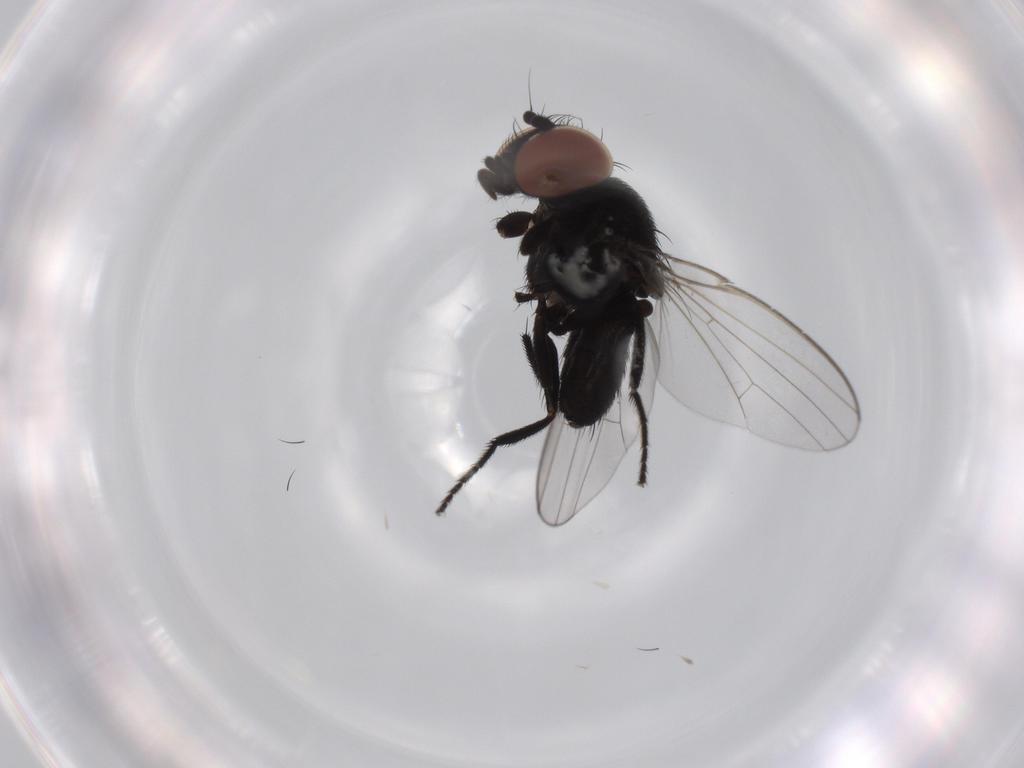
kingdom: Animalia
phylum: Arthropoda
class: Insecta
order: Diptera
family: Milichiidae
